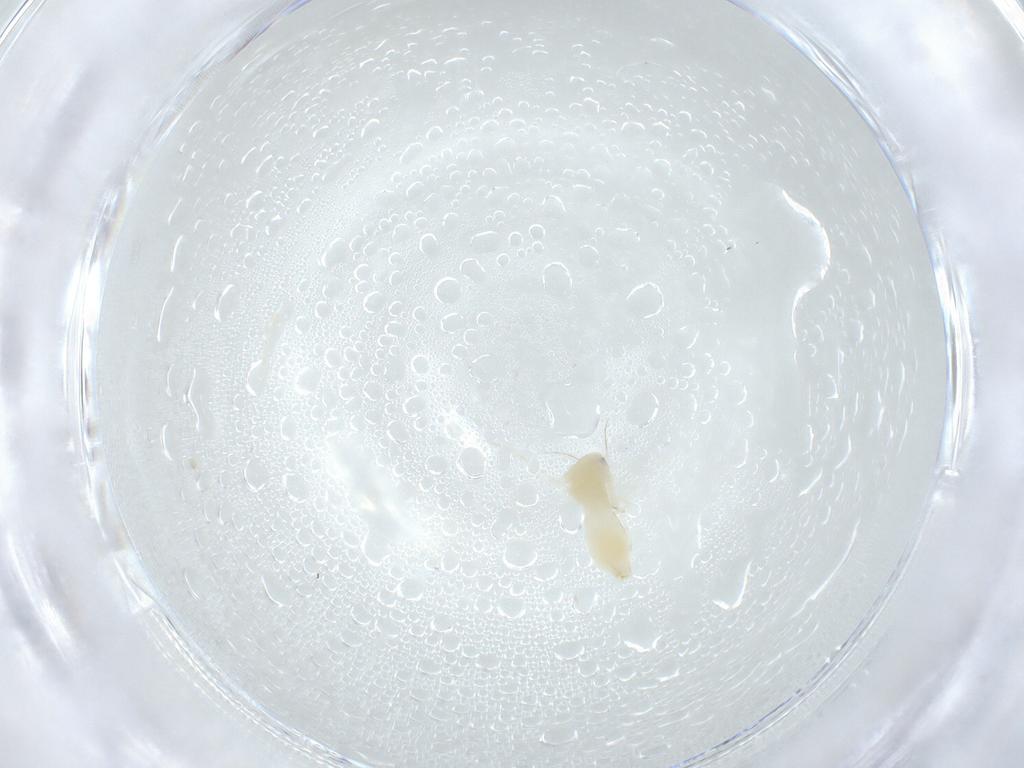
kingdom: Animalia
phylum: Arthropoda
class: Insecta
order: Hemiptera
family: Aleyrodidae
